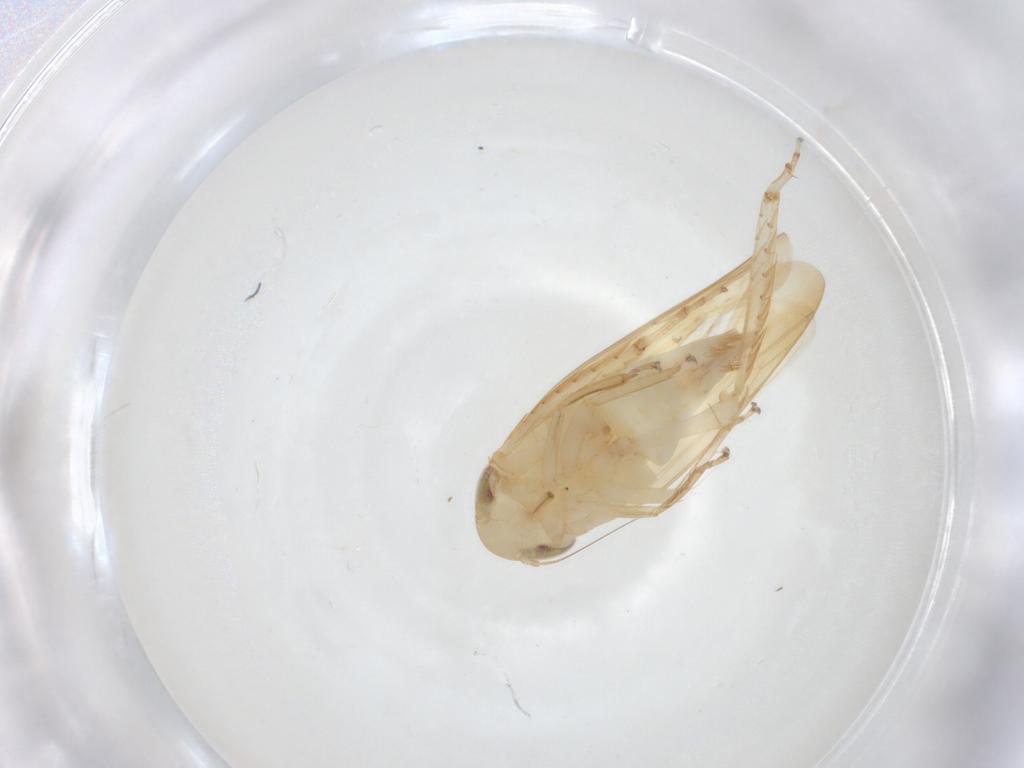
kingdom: Animalia
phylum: Arthropoda
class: Insecta
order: Hemiptera
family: Cicadellidae
